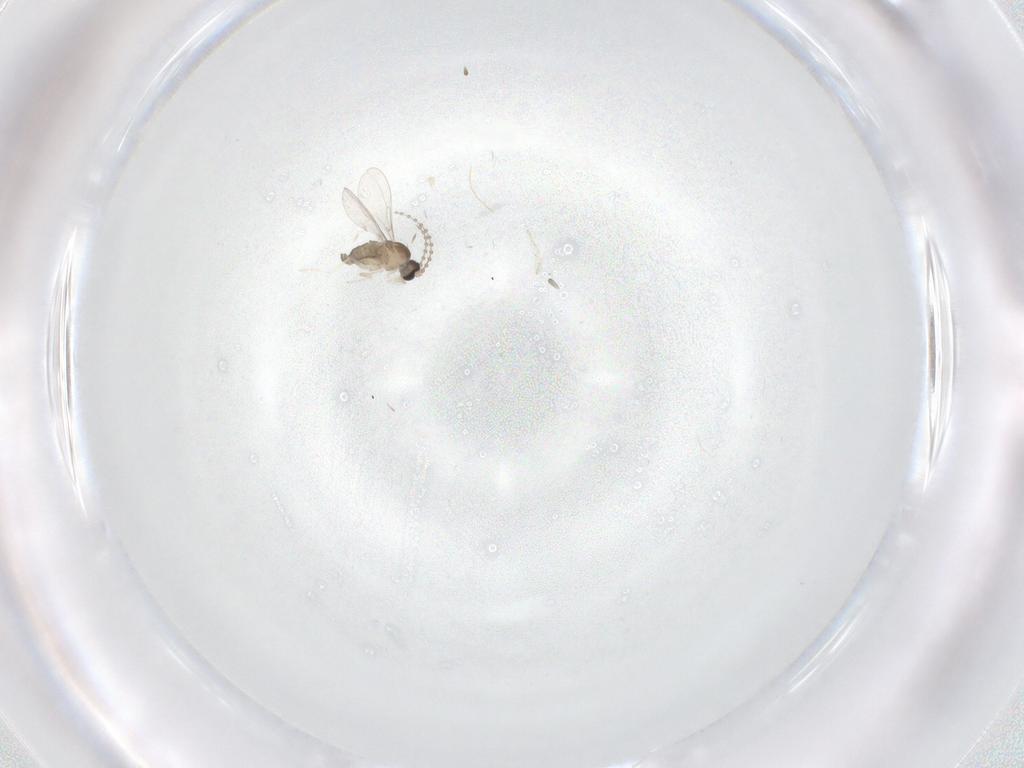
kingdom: Animalia
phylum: Arthropoda
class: Insecta
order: Diptera
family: Cecidomyiidae
